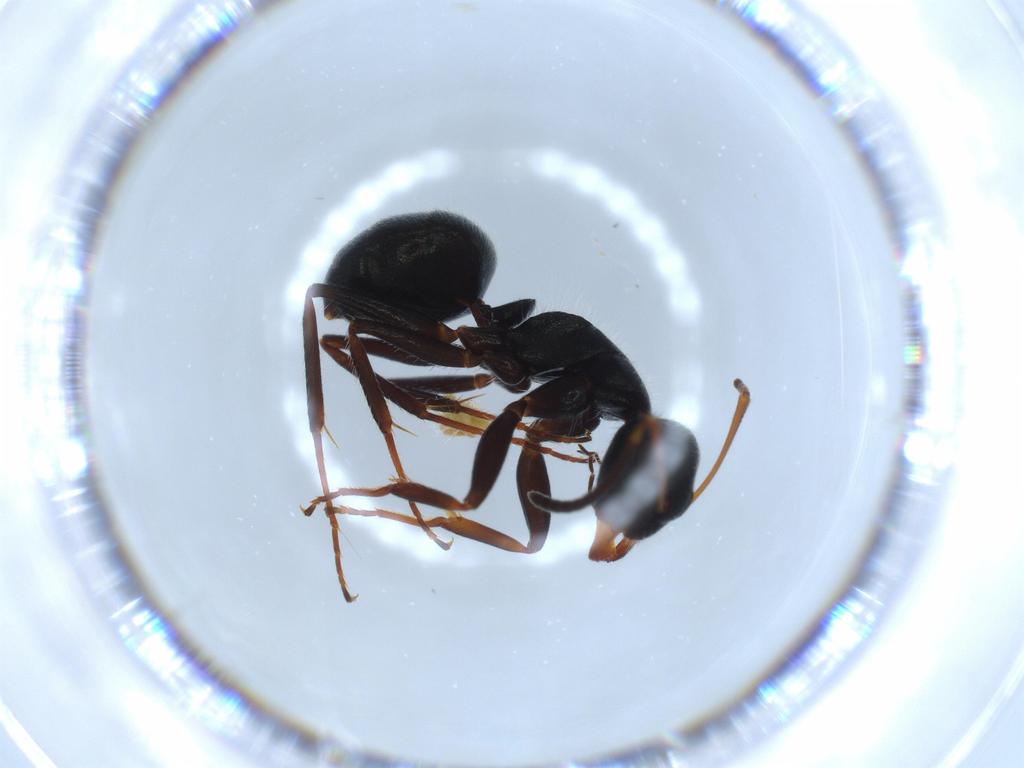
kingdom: Animalia
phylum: Arthropoda
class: Insecta
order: Hymenoptera
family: Formicidae
